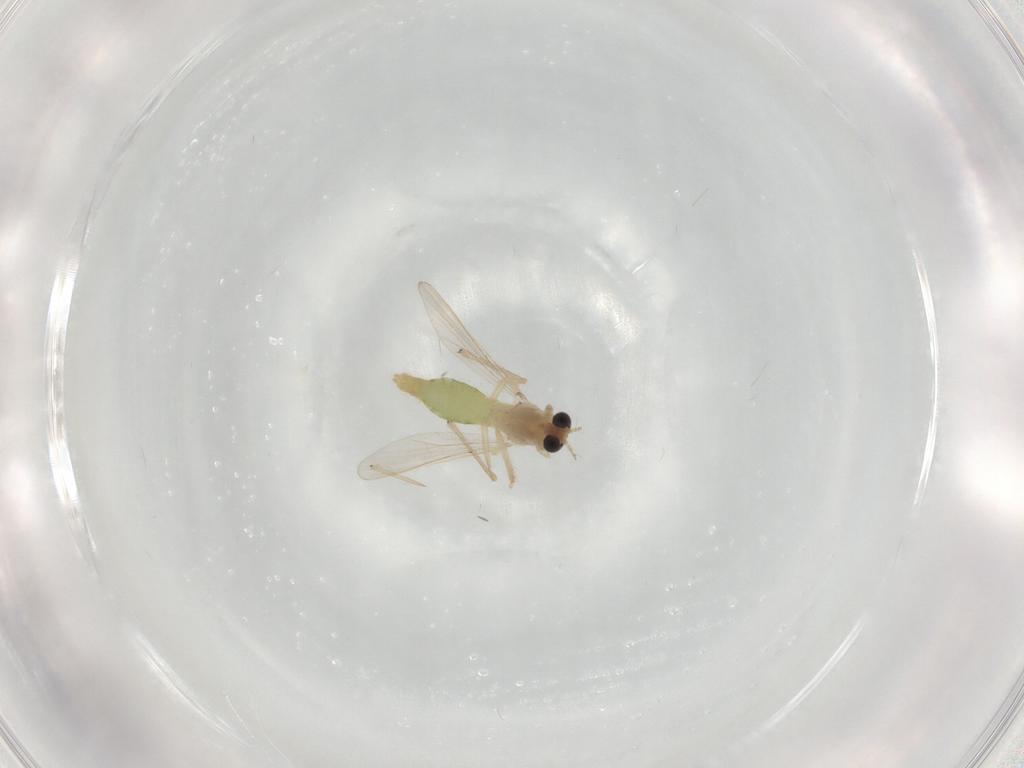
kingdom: Animalia
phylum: Arthropoda
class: Insecta
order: Diptera
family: Chironomidae
